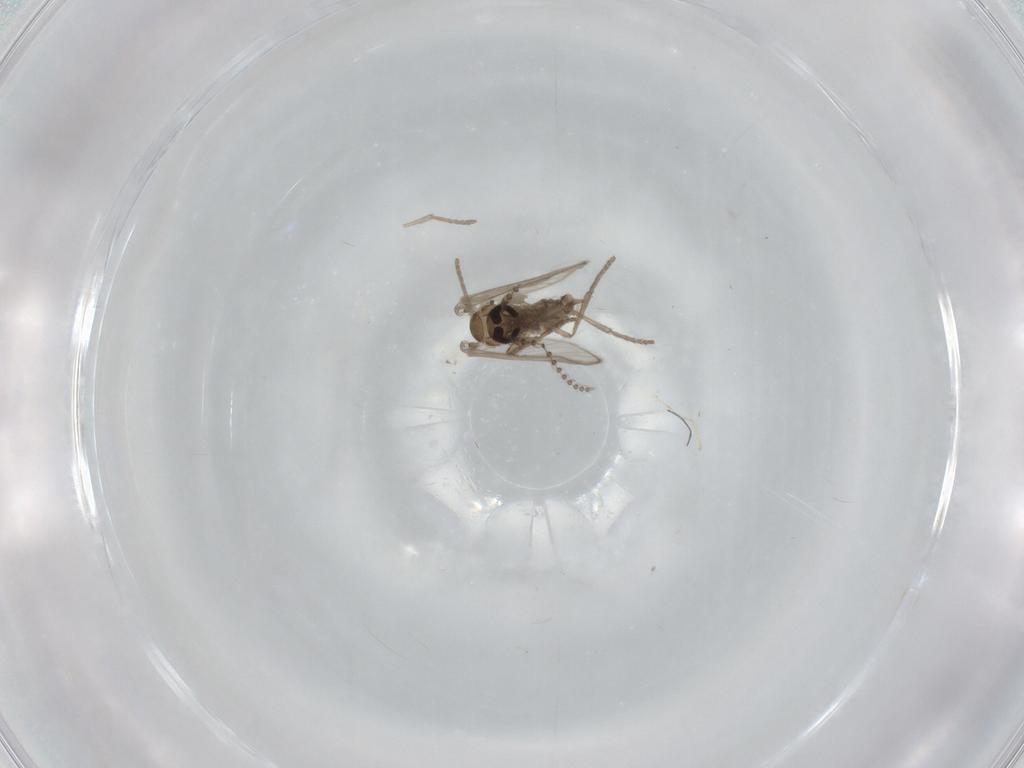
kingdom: Animalia
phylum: Arthropoda
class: Insecta
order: Diptera
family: Psychodidae
